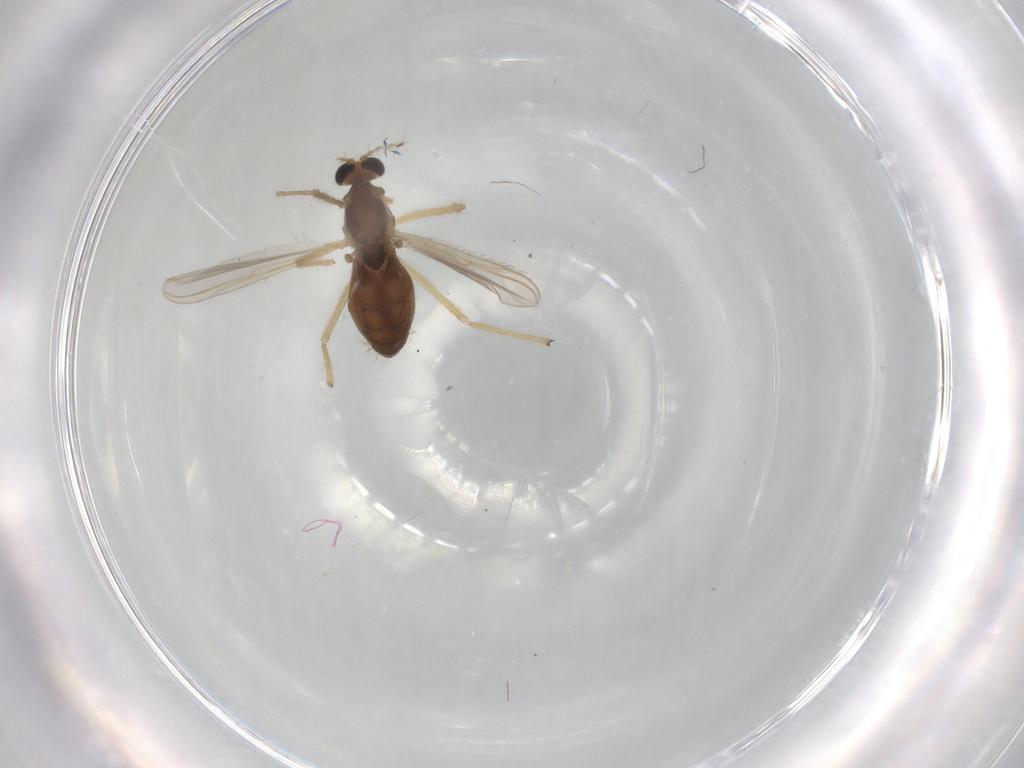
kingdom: Animalia
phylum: Arthropoda
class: Insecta
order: Diptera
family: Chironomidae
